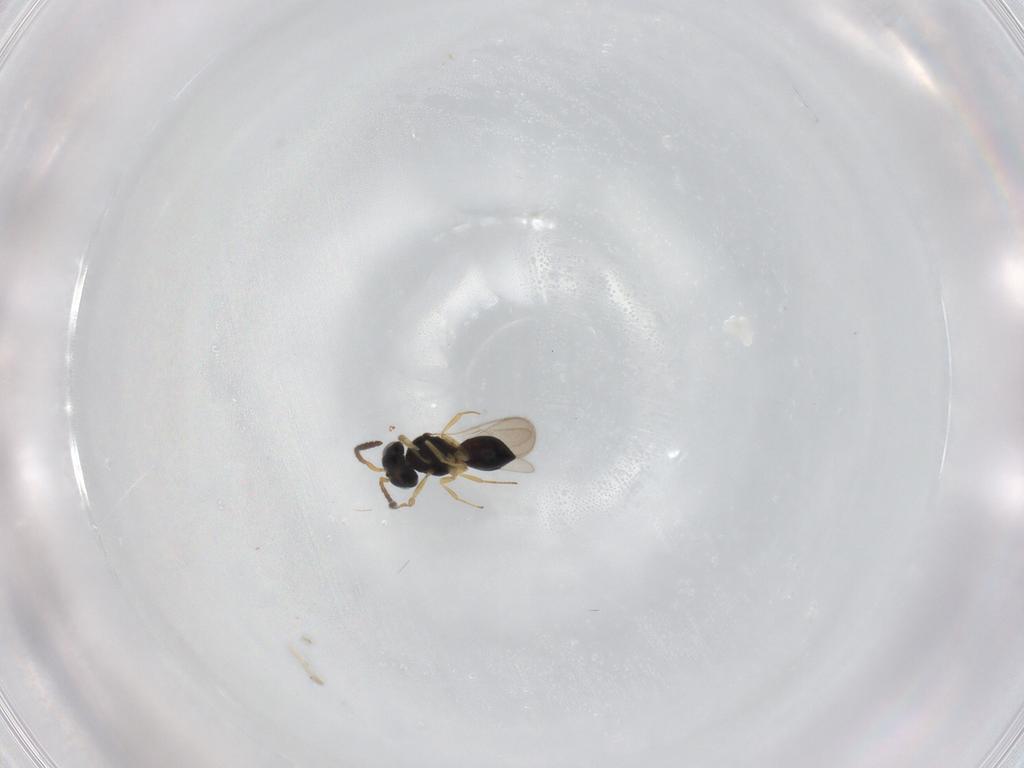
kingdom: Animalia
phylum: Arthropoda
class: Insecta
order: Hymenoptera
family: Scelionidae
